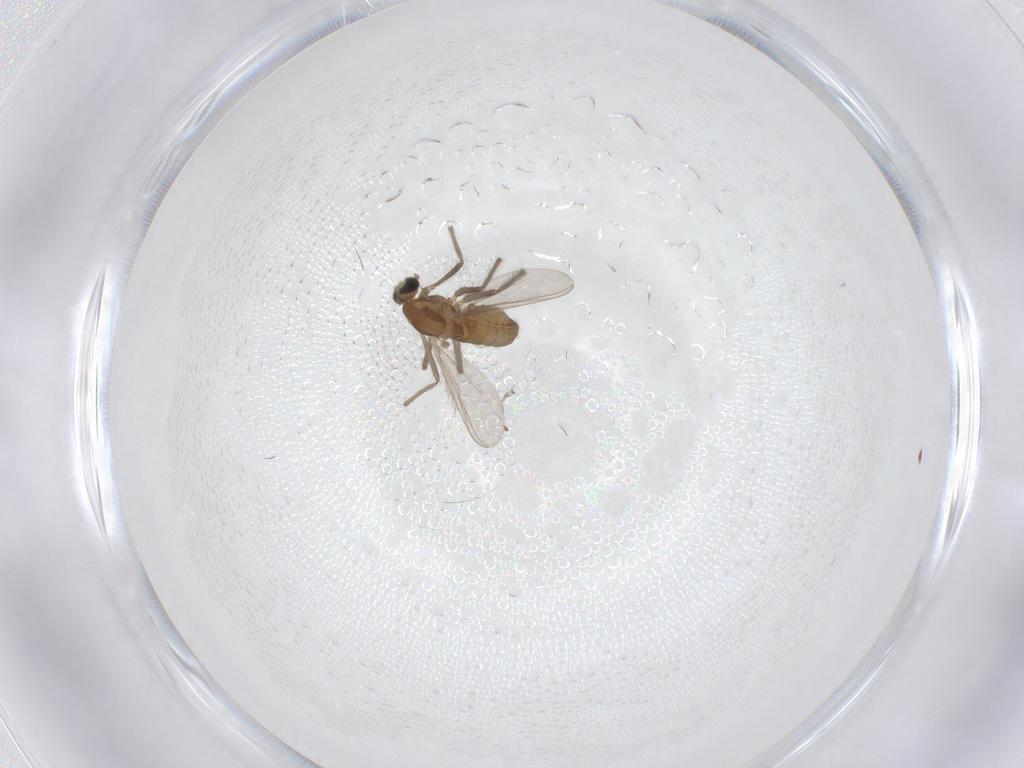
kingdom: Animalia
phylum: Arthropoda
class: Insecta
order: Diptera
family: Chironomidae
